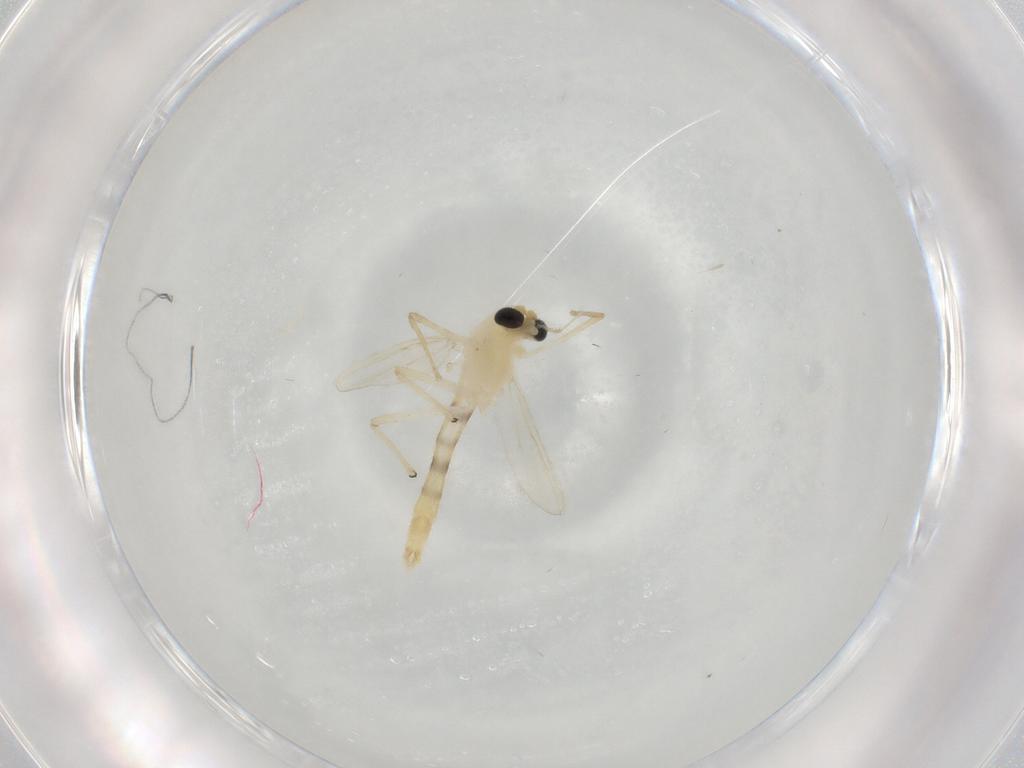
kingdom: Animalia
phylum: Arthropoda
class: Insecta
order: Diptera
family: Chironomidae
